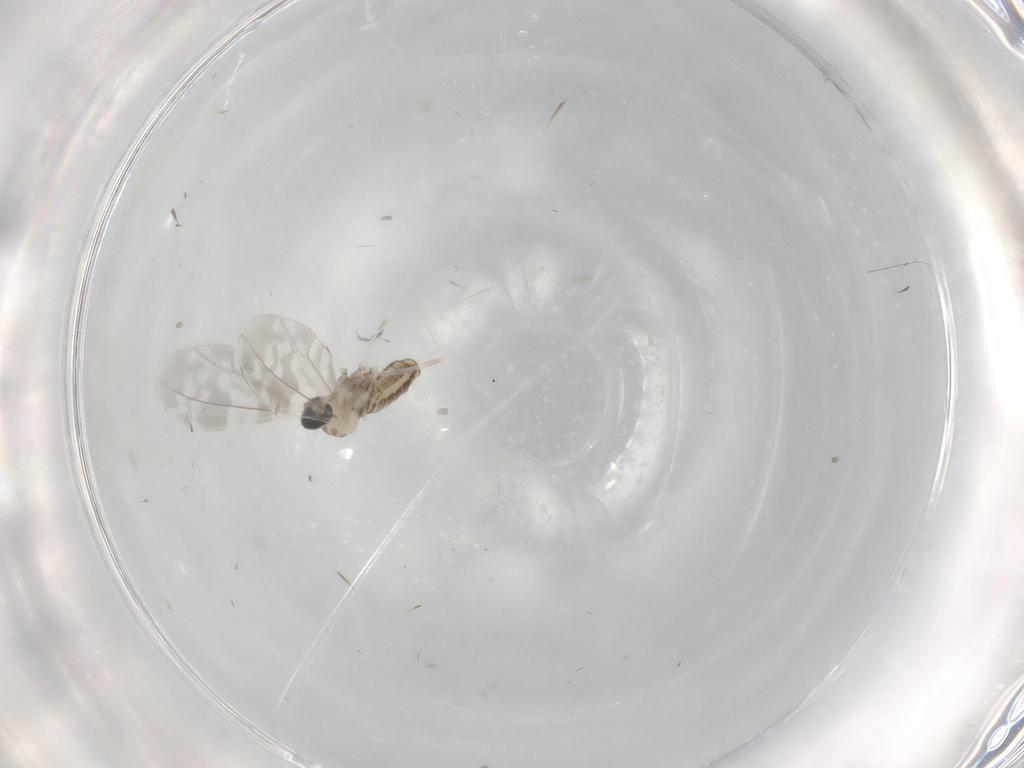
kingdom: Animalia
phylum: Arthropoda
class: Insecta
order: Diptera
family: Cecidomyiidae
